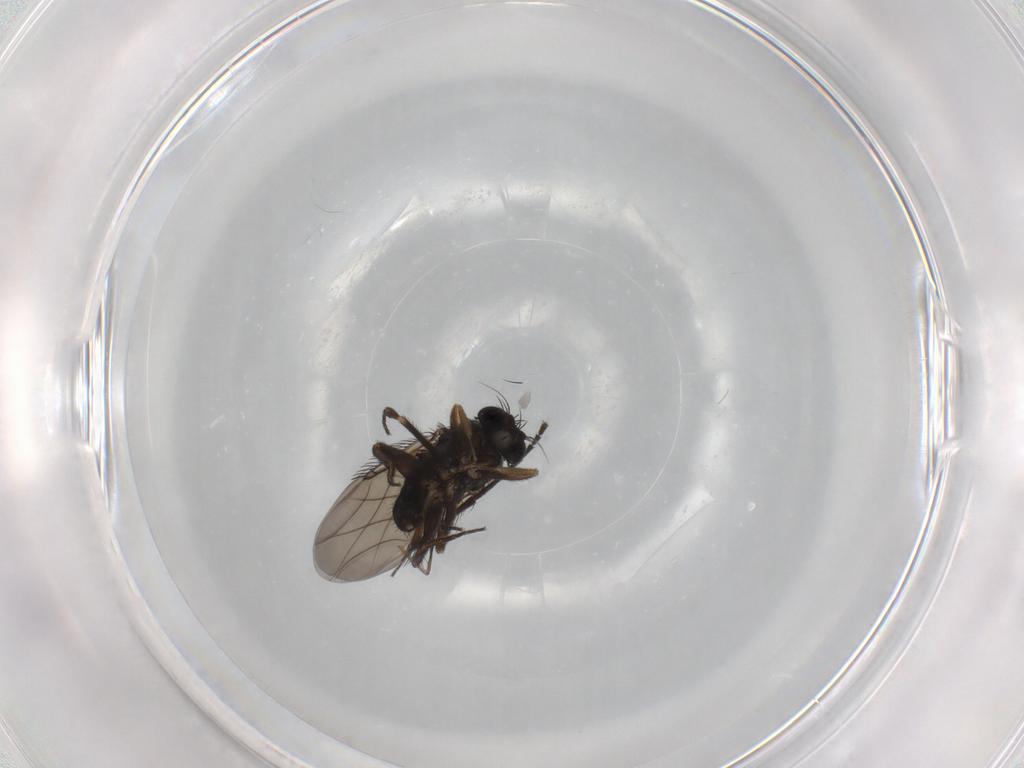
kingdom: Animalia
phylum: Arthropoda
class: Insecta
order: Diptera
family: Phoridae
